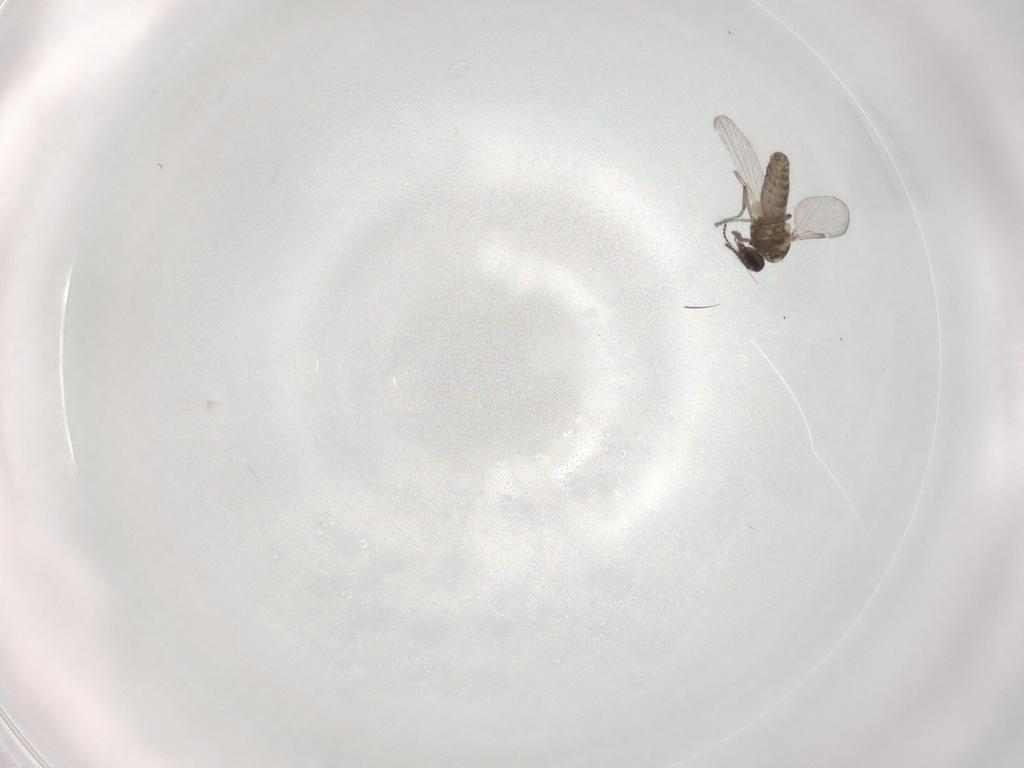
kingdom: Animalia
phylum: Arthropoda
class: Insecta
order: Diptera
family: Ceratopogonidae
